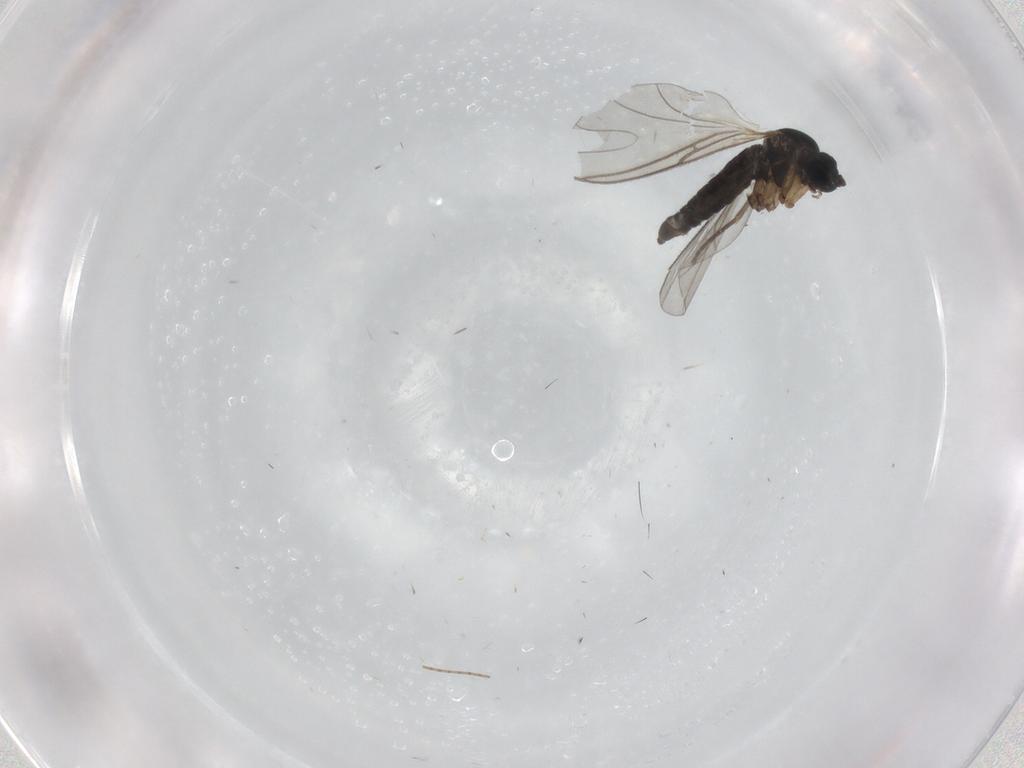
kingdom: Animalia
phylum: Arthropoda
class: Insecta
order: Diptera
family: Sciaridae
